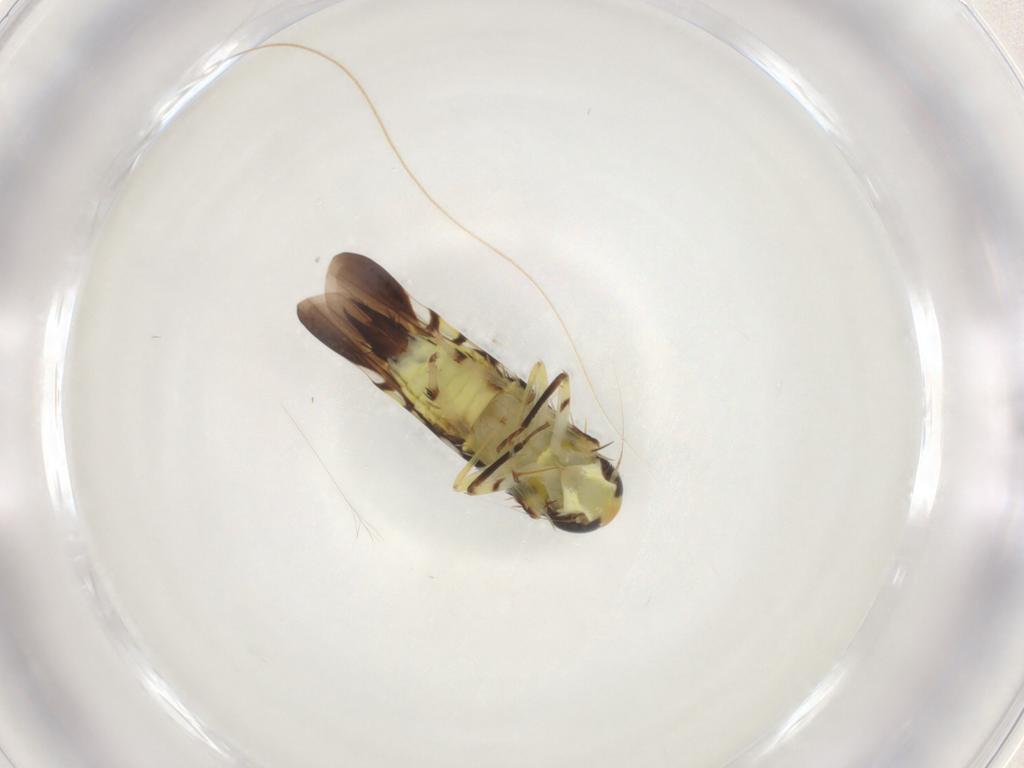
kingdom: Animalia
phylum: Arthropoda
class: Insecta
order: Hemiptera
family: Cicadellidae
